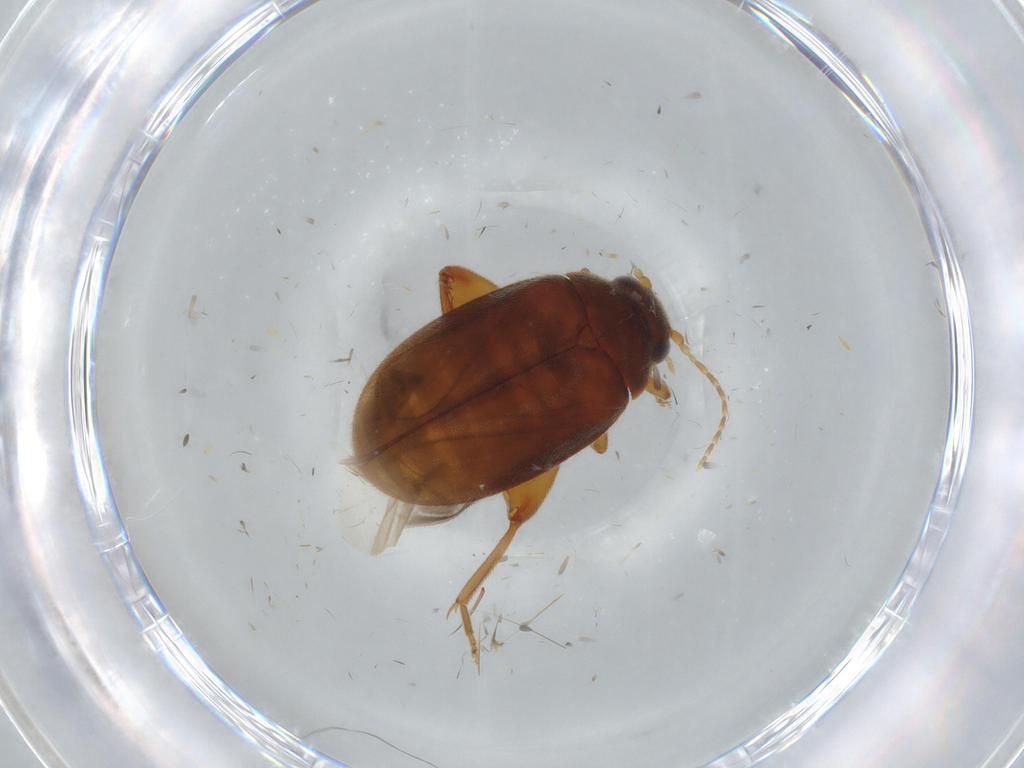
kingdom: Animalia
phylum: Arthropoda
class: Insecta
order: Coleoptera
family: Scirtidae
